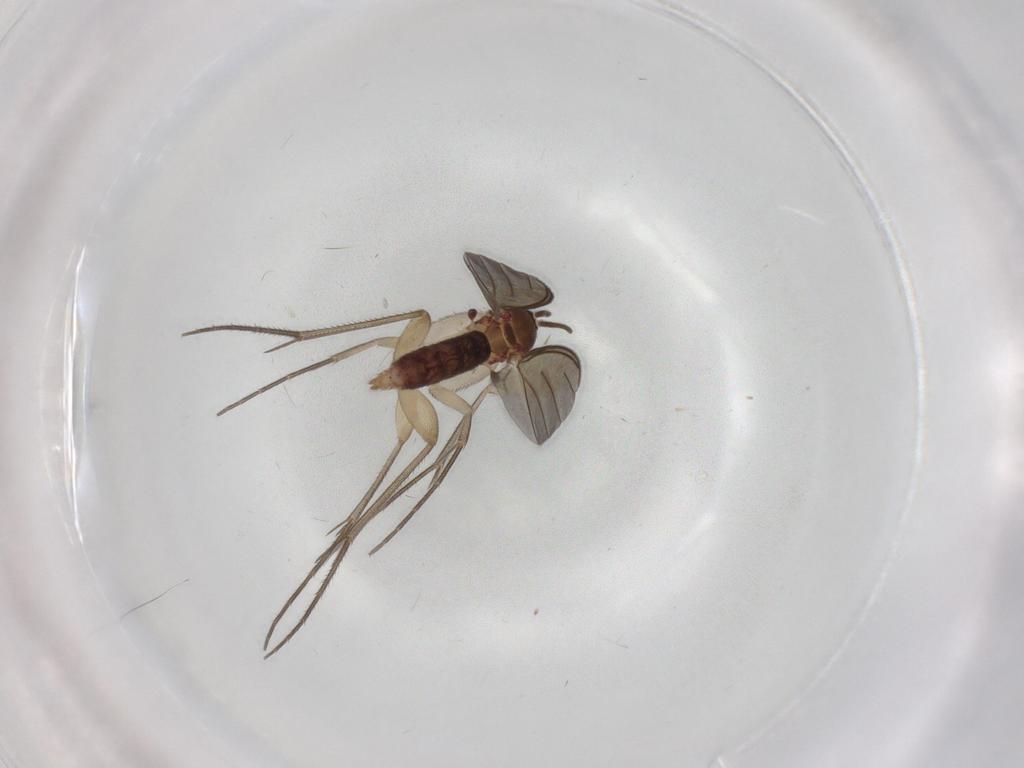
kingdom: Animalia
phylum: Arthropoda
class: Insecta
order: Diptera
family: Mycetophilidae
